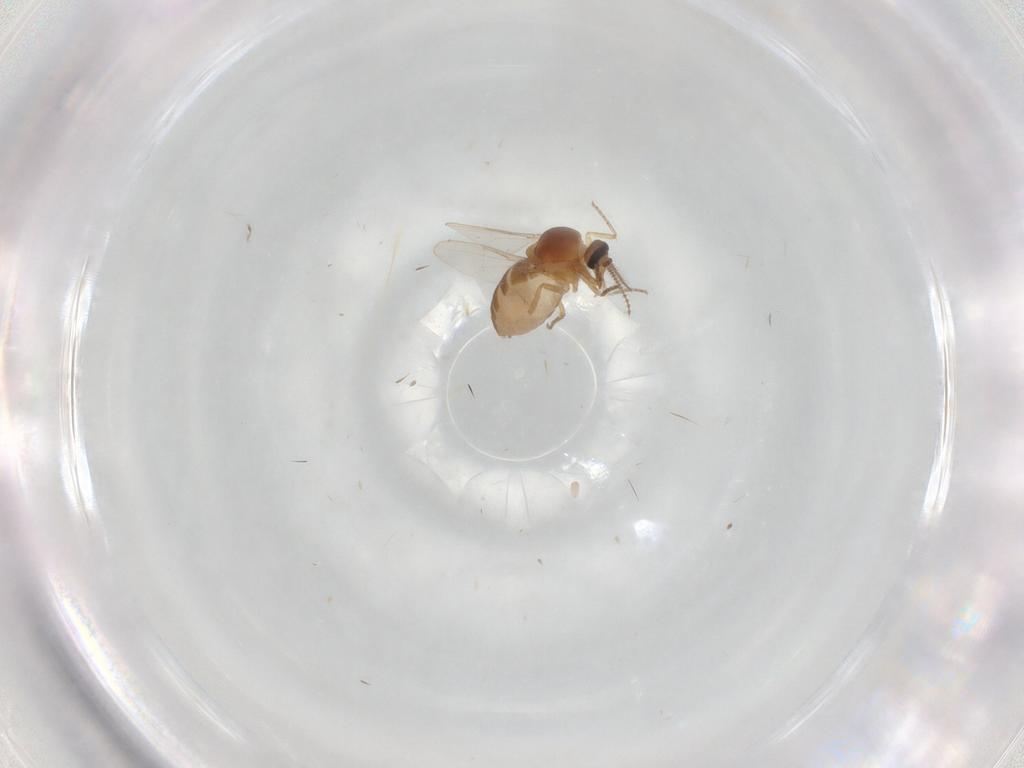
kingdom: Animalia
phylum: Arthropoda
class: Insecta
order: Diptera
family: Ceratopogonidae
